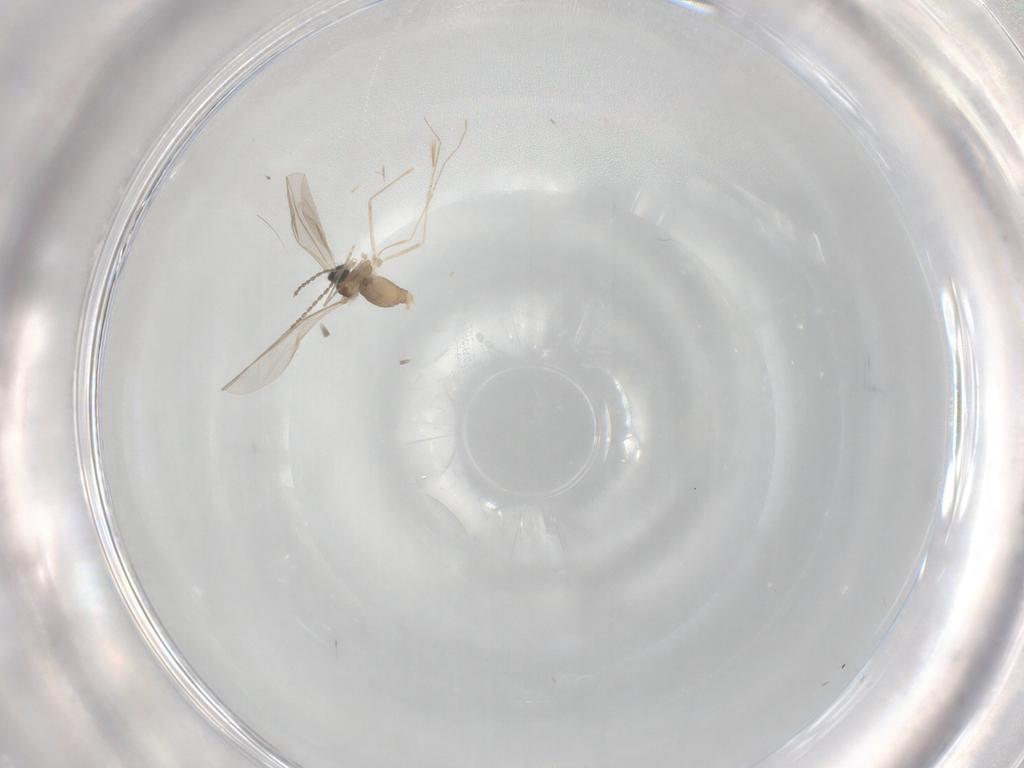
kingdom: Animalia
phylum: Arthropoda
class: Insecta
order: Diptera
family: Cecidomyiidae
